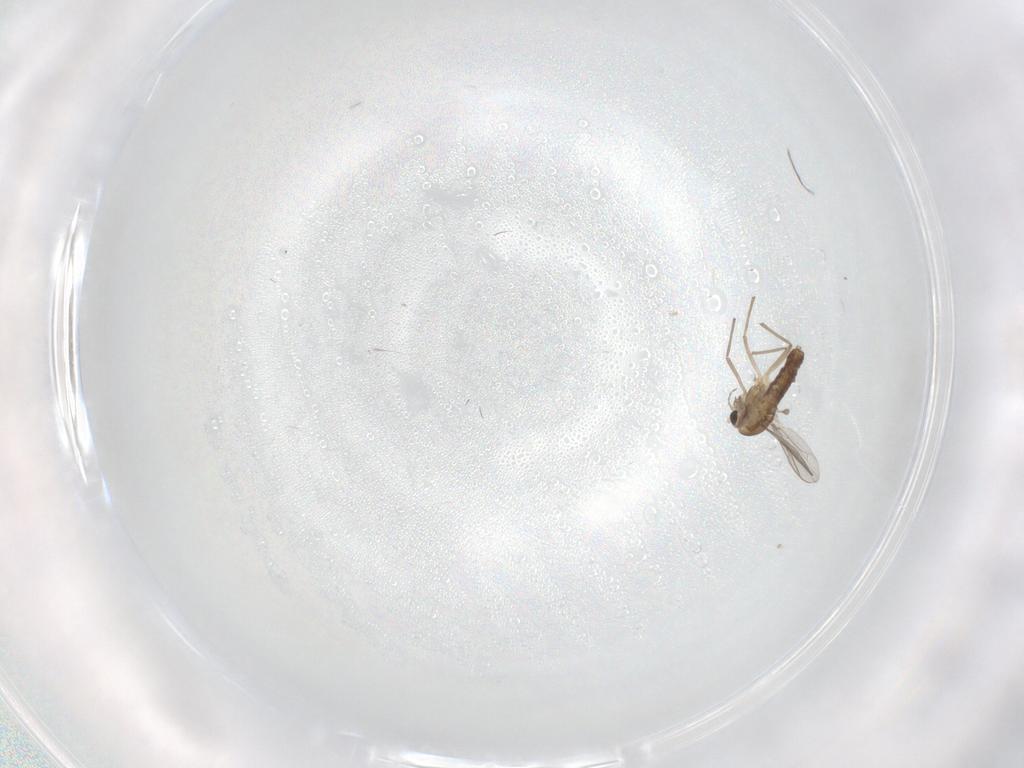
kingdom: Animalia
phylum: Arthropoda
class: Insecta
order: Diptera
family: Chironomidae
